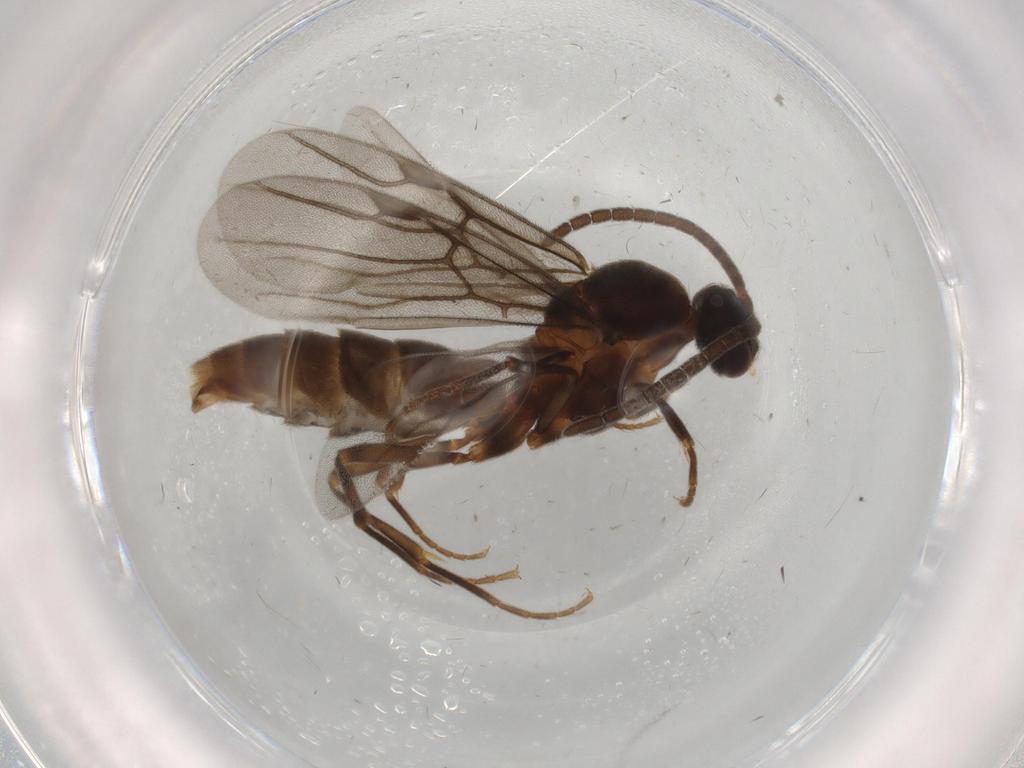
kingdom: Animalia
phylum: Arthropoda
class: Insecta
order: Hymenoptera
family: Formicidae
